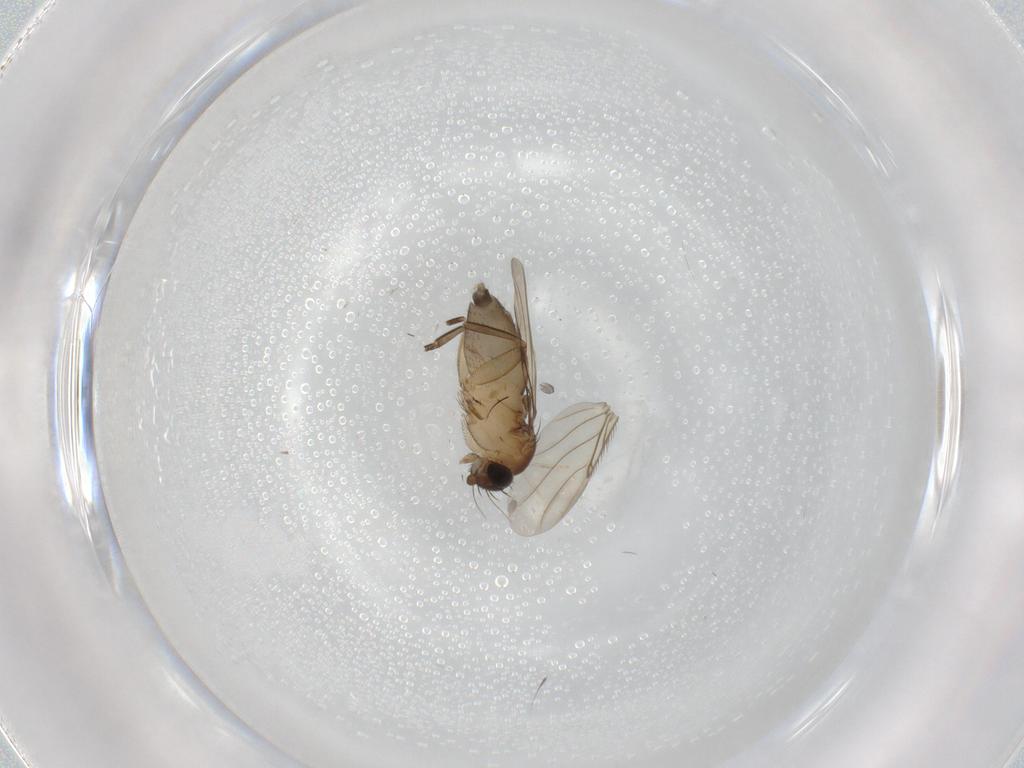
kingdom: Animalia
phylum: Arthropoda
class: Insecta
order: Diptera
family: Phoridae
